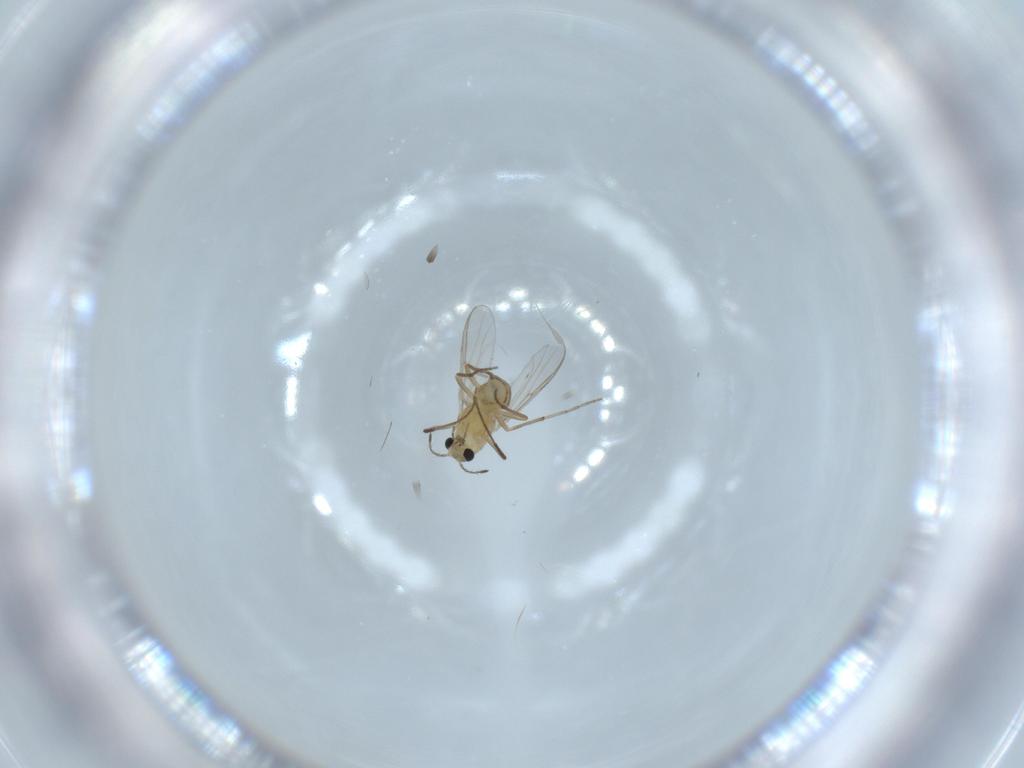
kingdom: Animalia
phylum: Arthropoda
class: Insecta
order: Diptera
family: Chironomidae
